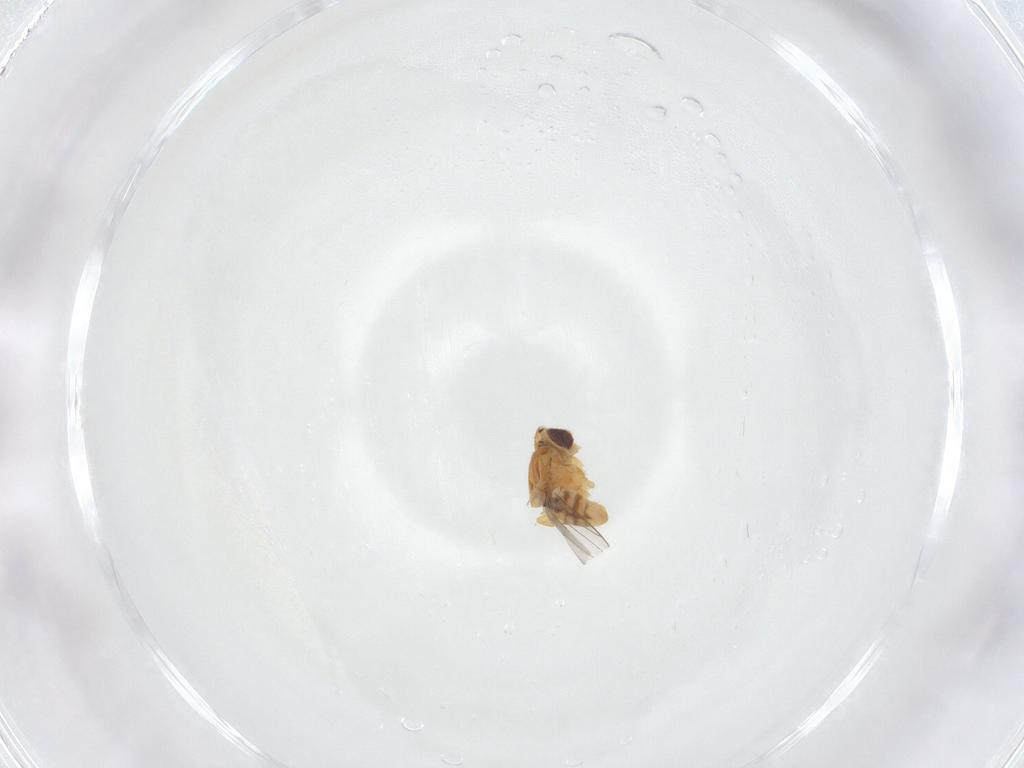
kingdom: Animalia
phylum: Arthropoda
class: Insecta
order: Diptera
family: Chloropidae
